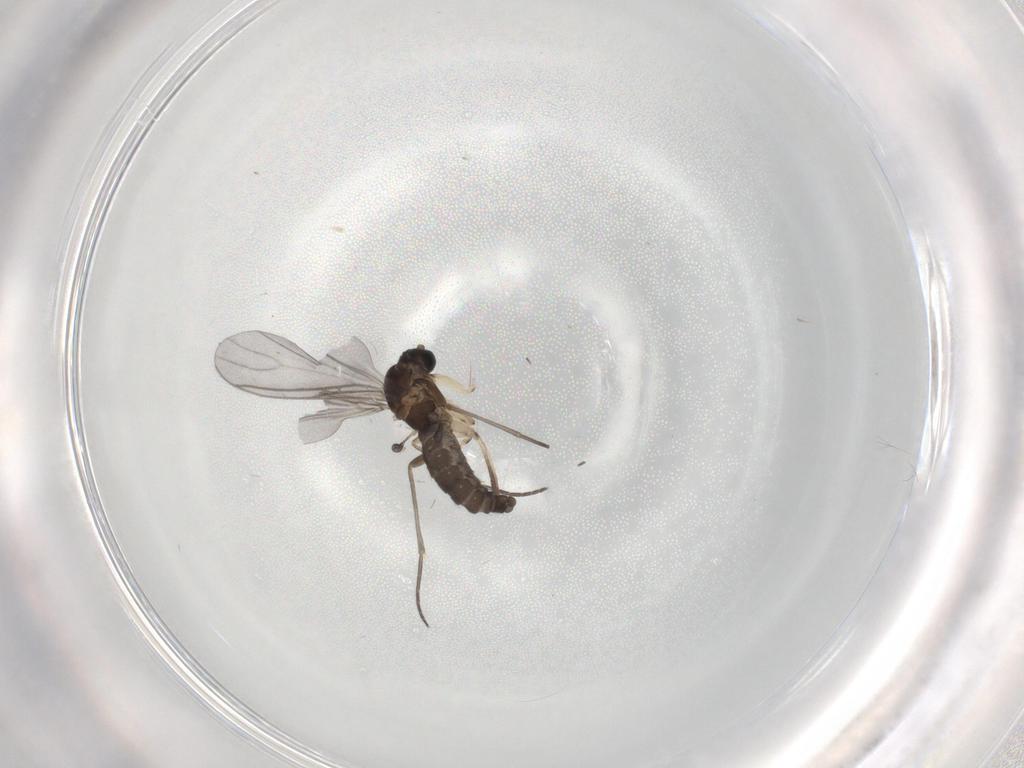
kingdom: Animalia
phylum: Arthropoda
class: Insecta
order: Diptera
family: Sciaridae
